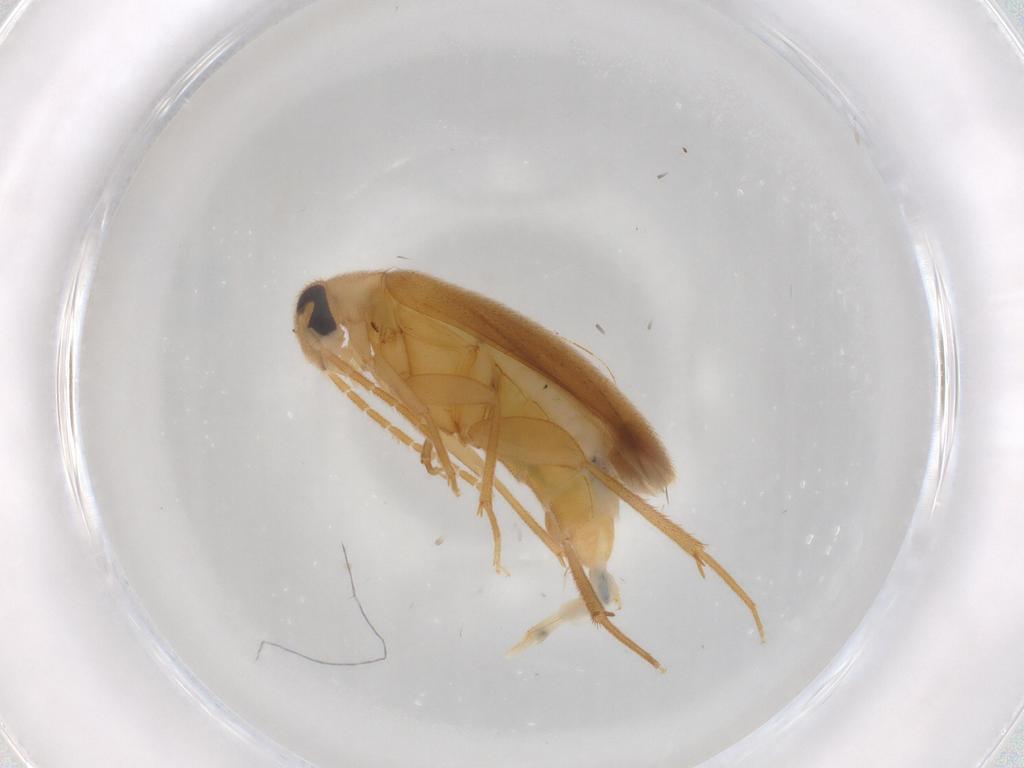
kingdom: Animalia
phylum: Arthropoda
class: Insecta
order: Coleoptera
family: Scraptiidae
